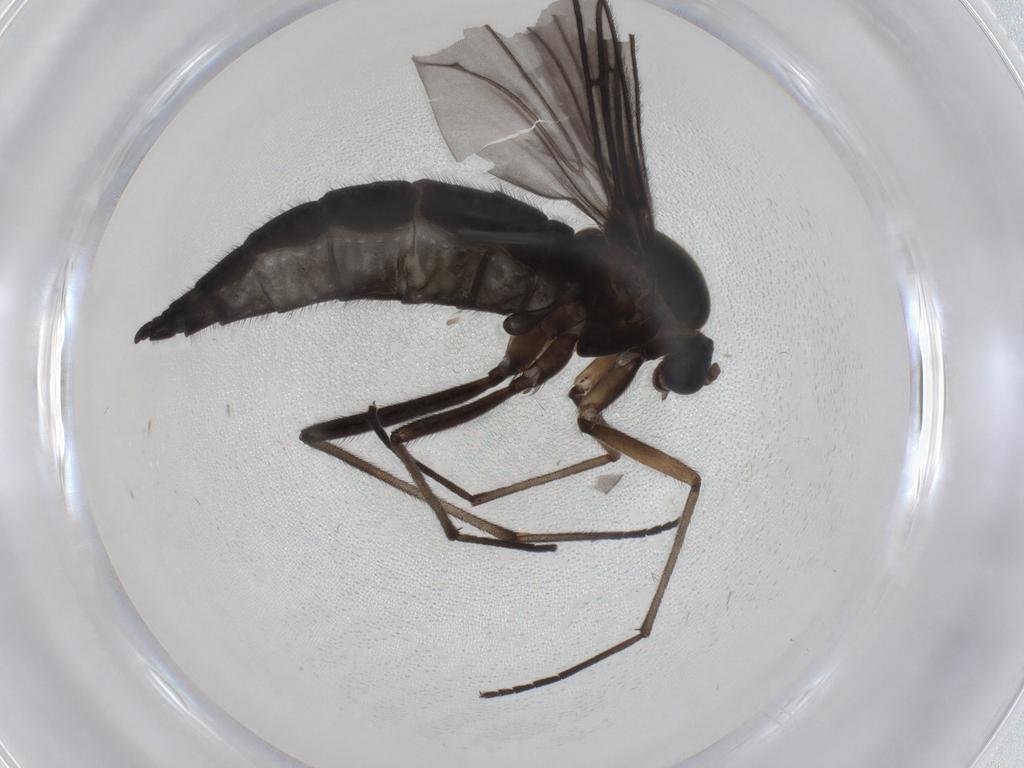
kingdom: Animalia
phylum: Arthropoda
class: Insecta
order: Diptera
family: Sciaridae
